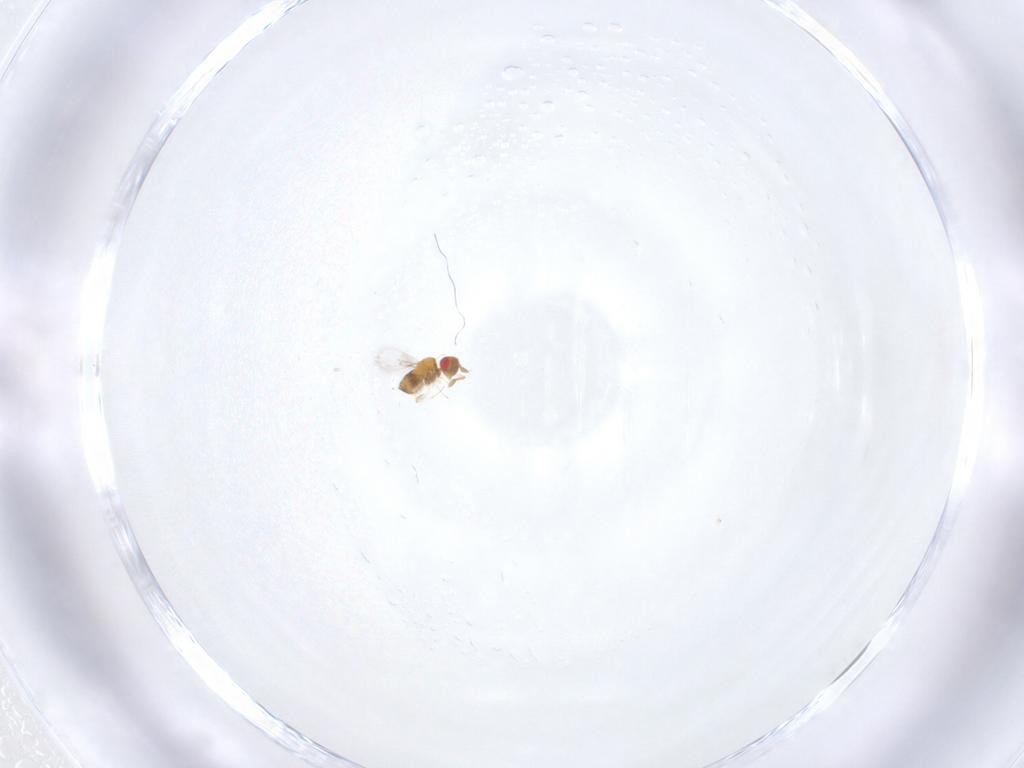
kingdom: Animalia
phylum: Arthropoda
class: Insecta
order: Hymenoptera
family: Trichogrammatidae
